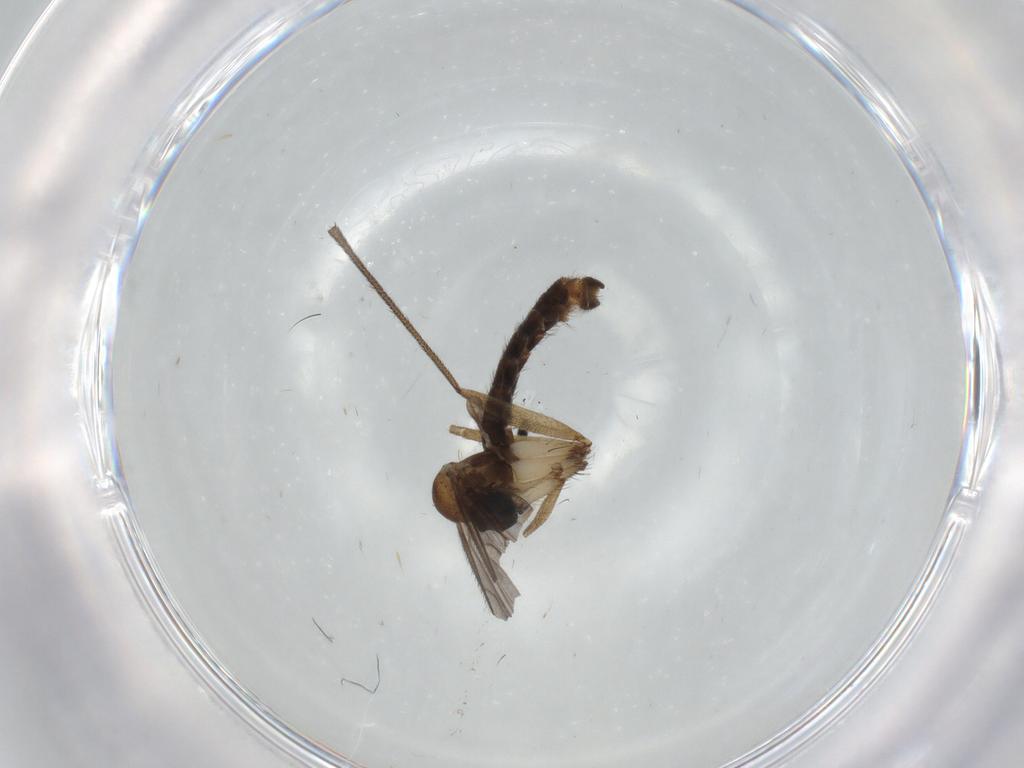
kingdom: Animalia
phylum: Arthropoda
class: Insecta
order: Diptera
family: Ditomyiidae
